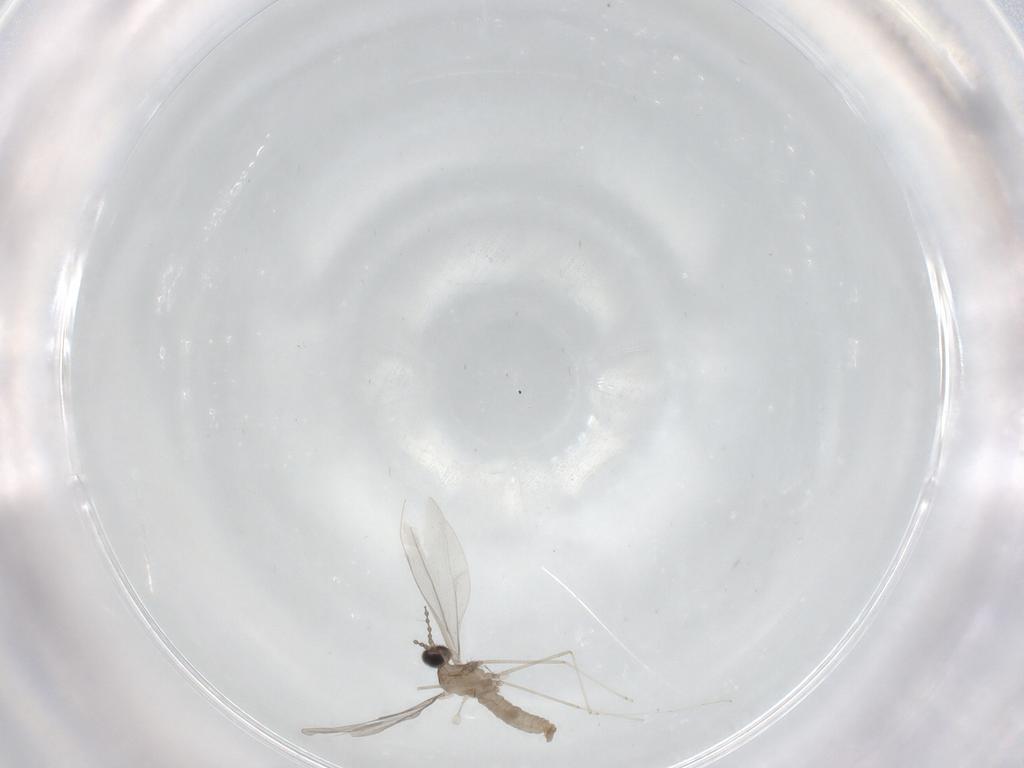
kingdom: Animalia
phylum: Arthropoda
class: Insecta
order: Diptera
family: Cecidomyiidae
